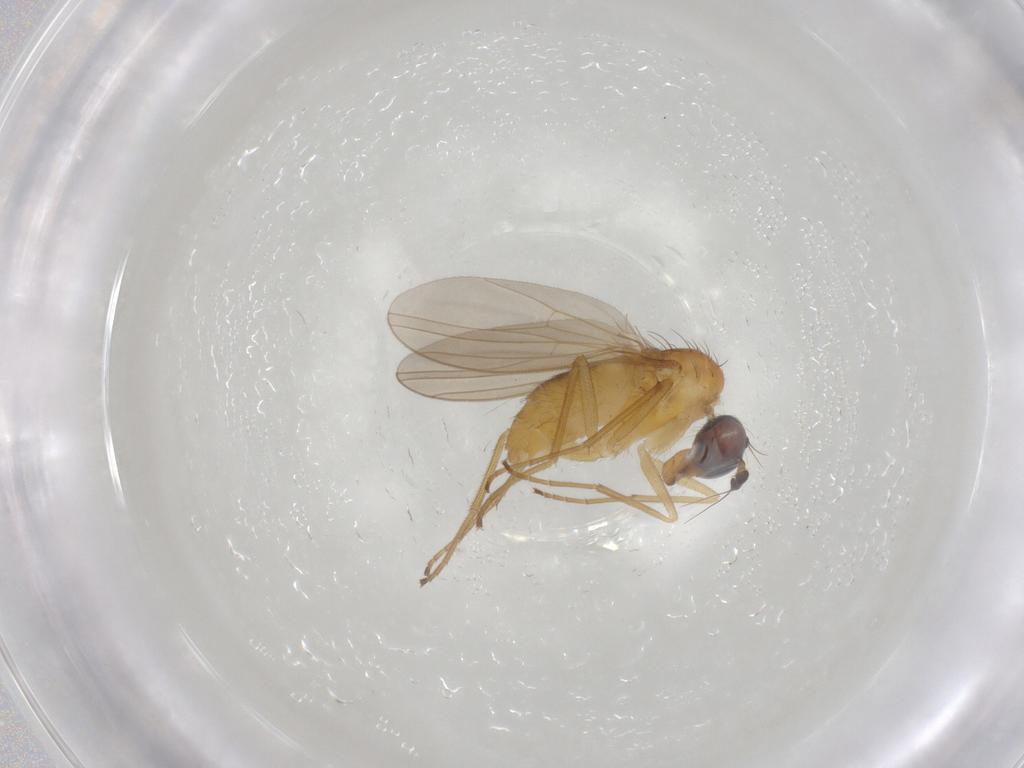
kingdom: Animalia
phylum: Arthropoda
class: Insecta
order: Diptera
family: Dolichopodidae
